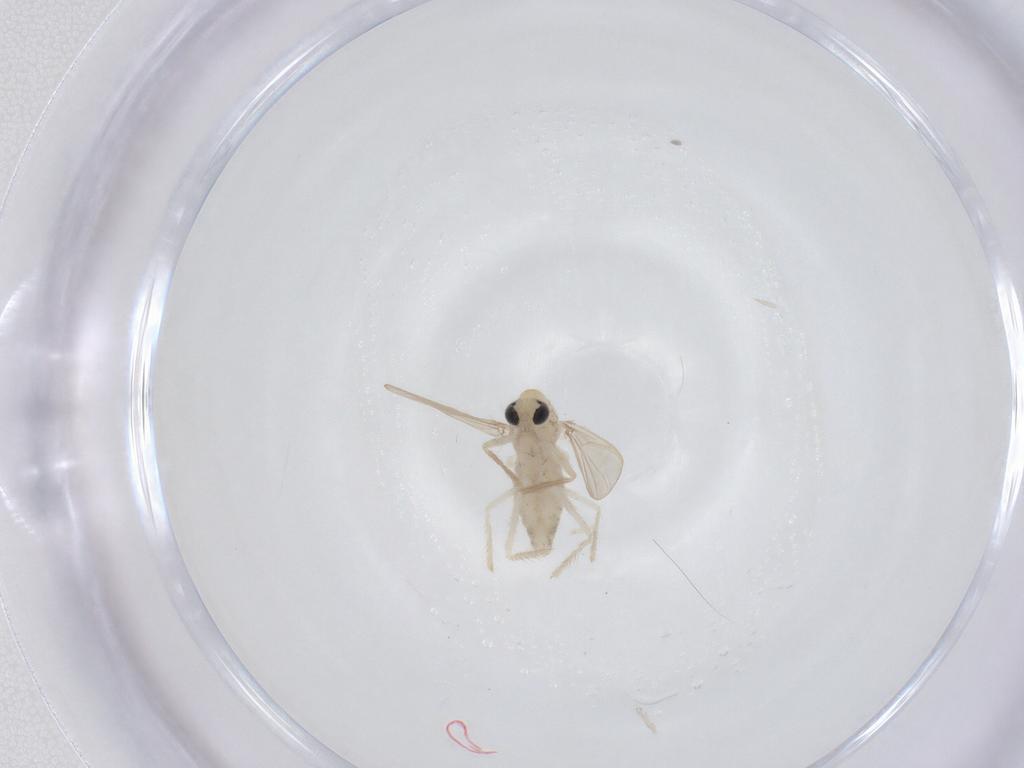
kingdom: Animalia
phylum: Arthropoda
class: Insecta
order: Diptera
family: Chironomidae
